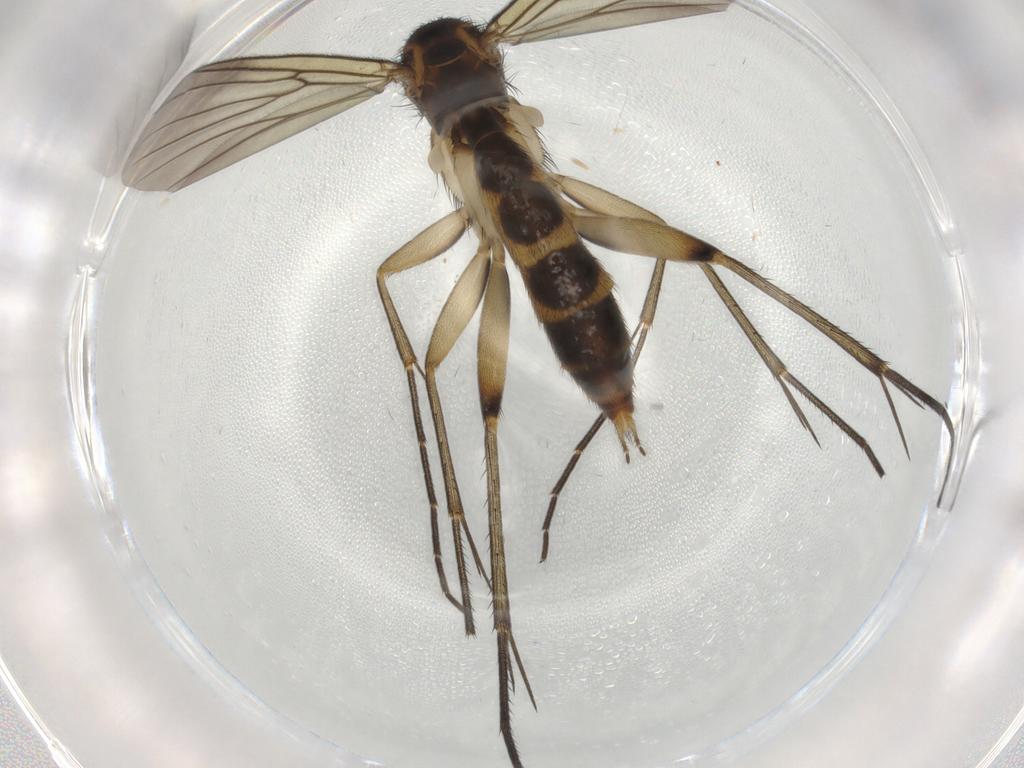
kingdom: Animalia
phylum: Arthropoda
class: Insecta
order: Diptera
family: Mycetophilidae
